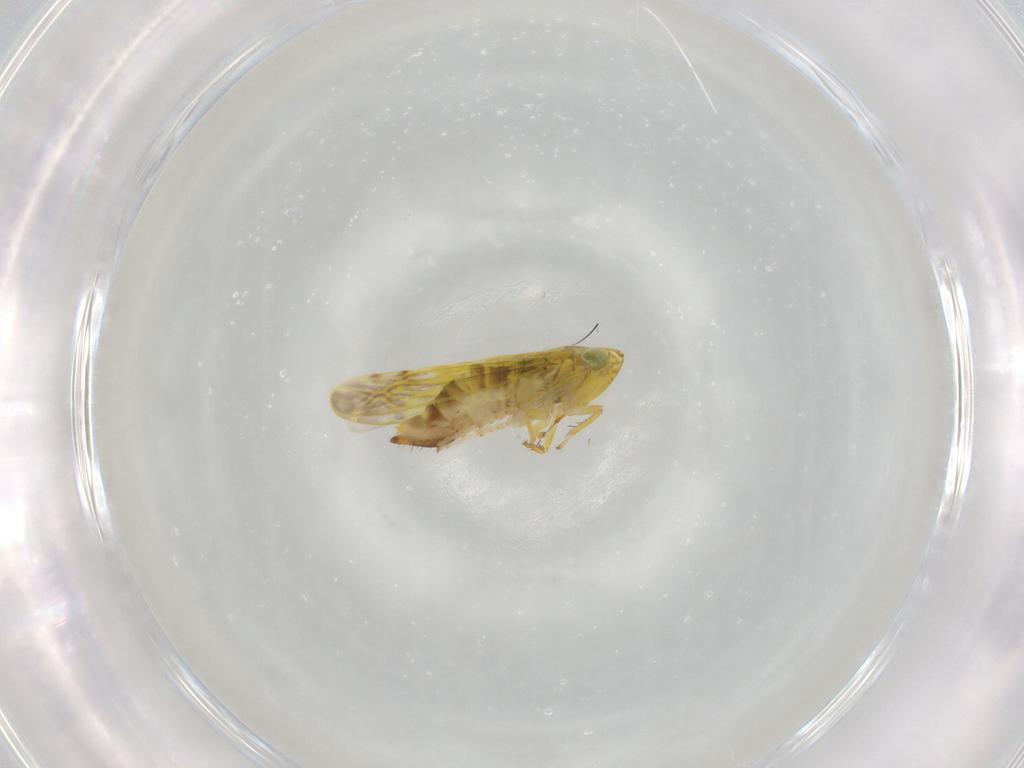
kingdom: Animalia
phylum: Arthropoda
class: Insecta
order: Hemiptera
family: Cicadellidae
